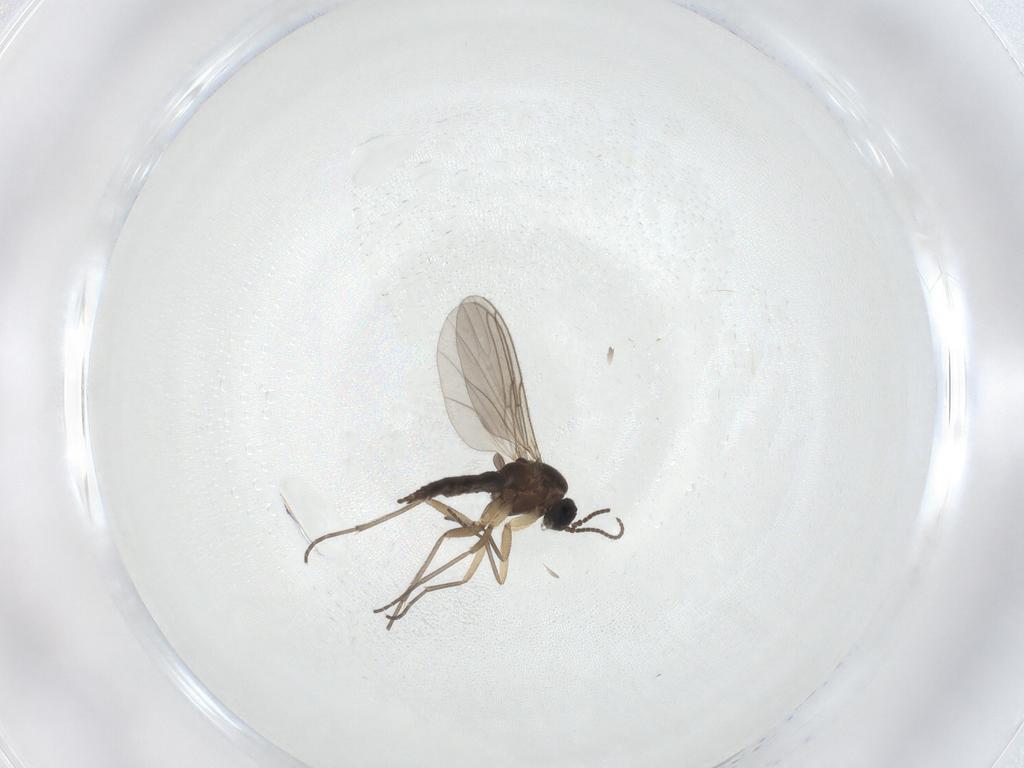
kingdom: Animalia
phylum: Arthropoda
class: Insecta
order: Diptera
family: Sciaridae
